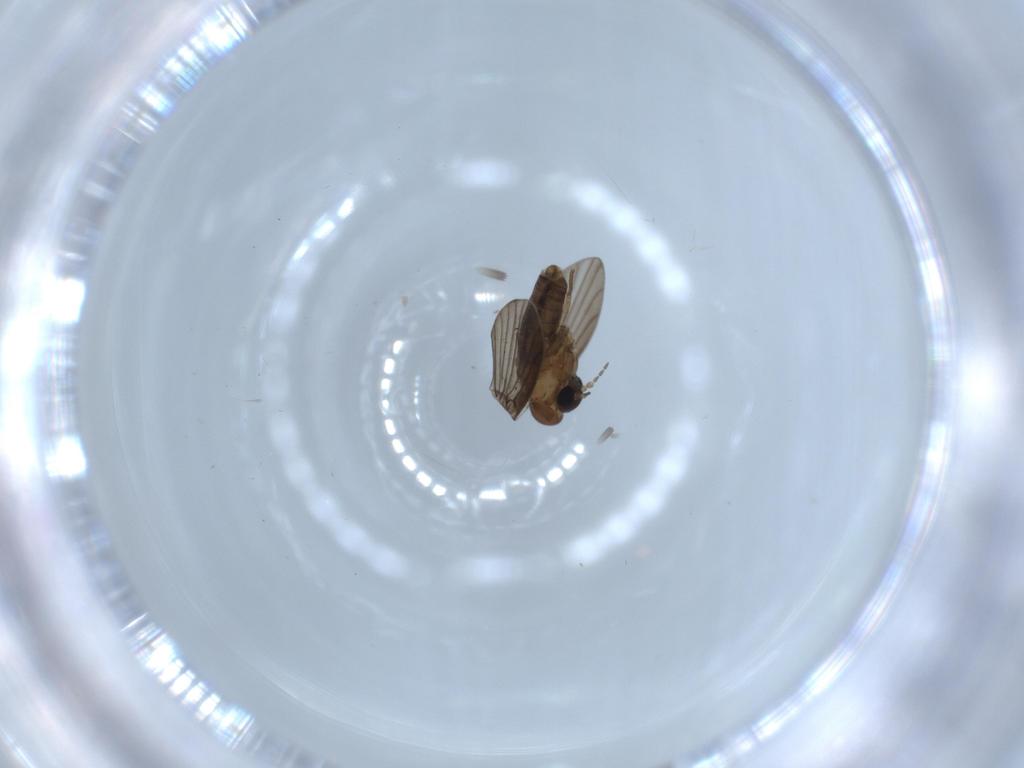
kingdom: Animalia
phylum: Arthropoda
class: Insecta
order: Diptera
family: Psychodidae
